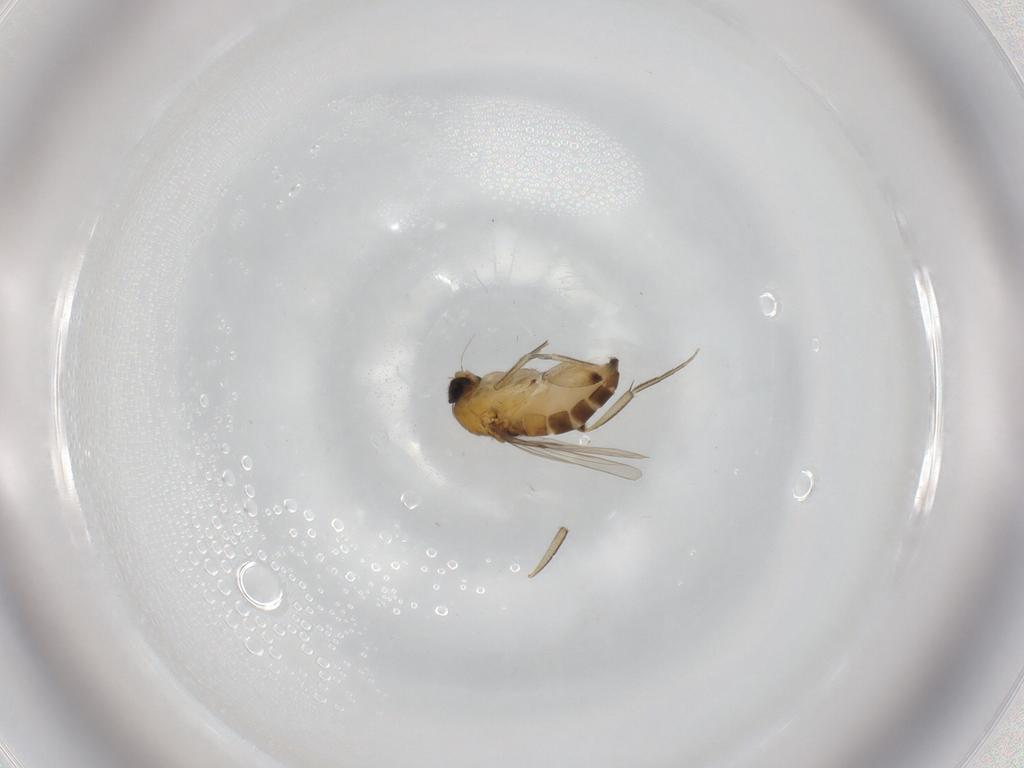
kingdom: Animalia
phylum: Arthropoda
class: Insecta
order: Diptera
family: Phoridae
